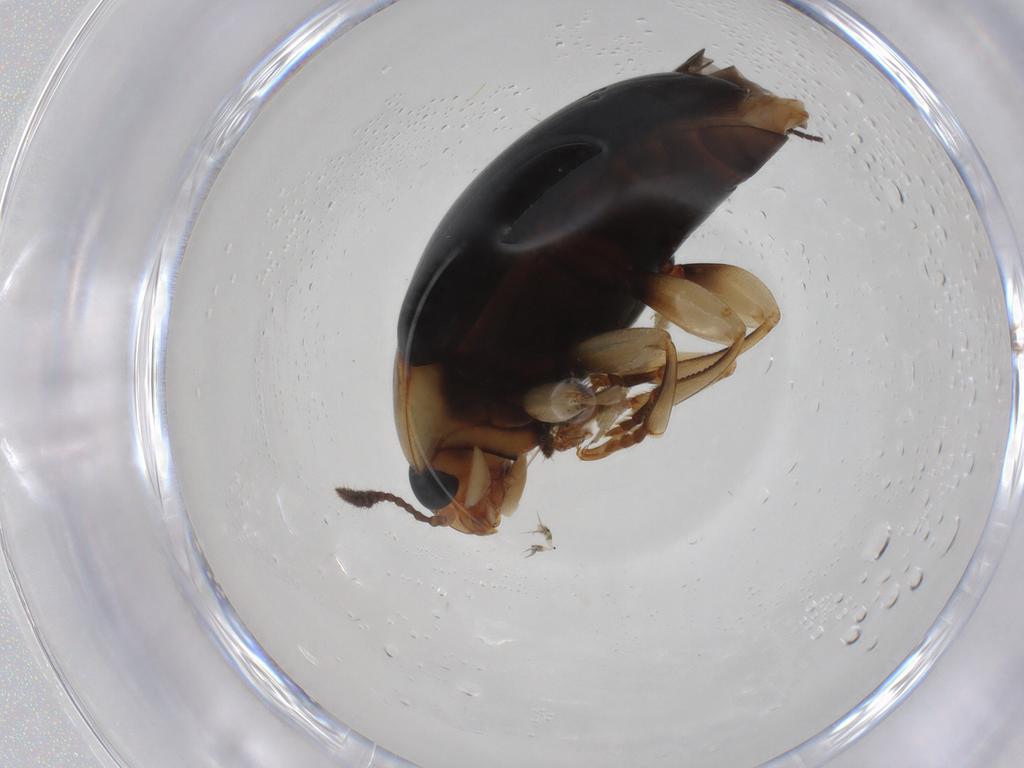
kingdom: Animalia
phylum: Arthropoda
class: Insecta
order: Coleoptera
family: Erotylidae
